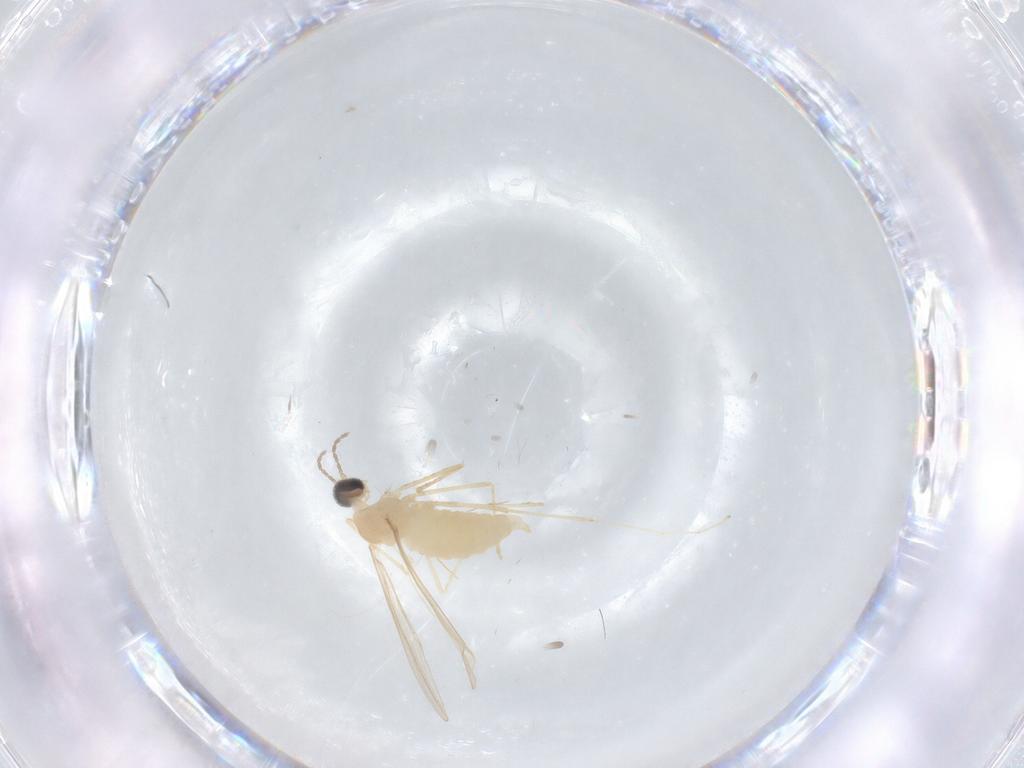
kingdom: Animalia
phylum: Arthropoda
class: Insecta
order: Diptera
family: Cecidomyiidae
